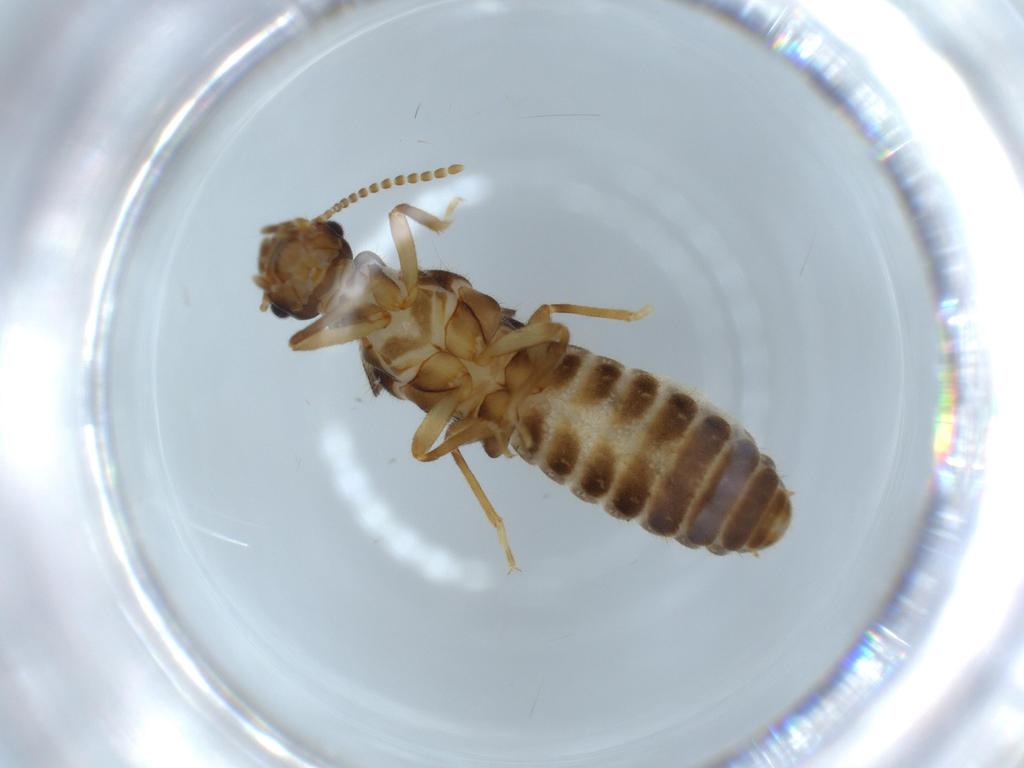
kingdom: Animalia
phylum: Arthropoda
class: Insecta
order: Blattodea
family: Termitidae
